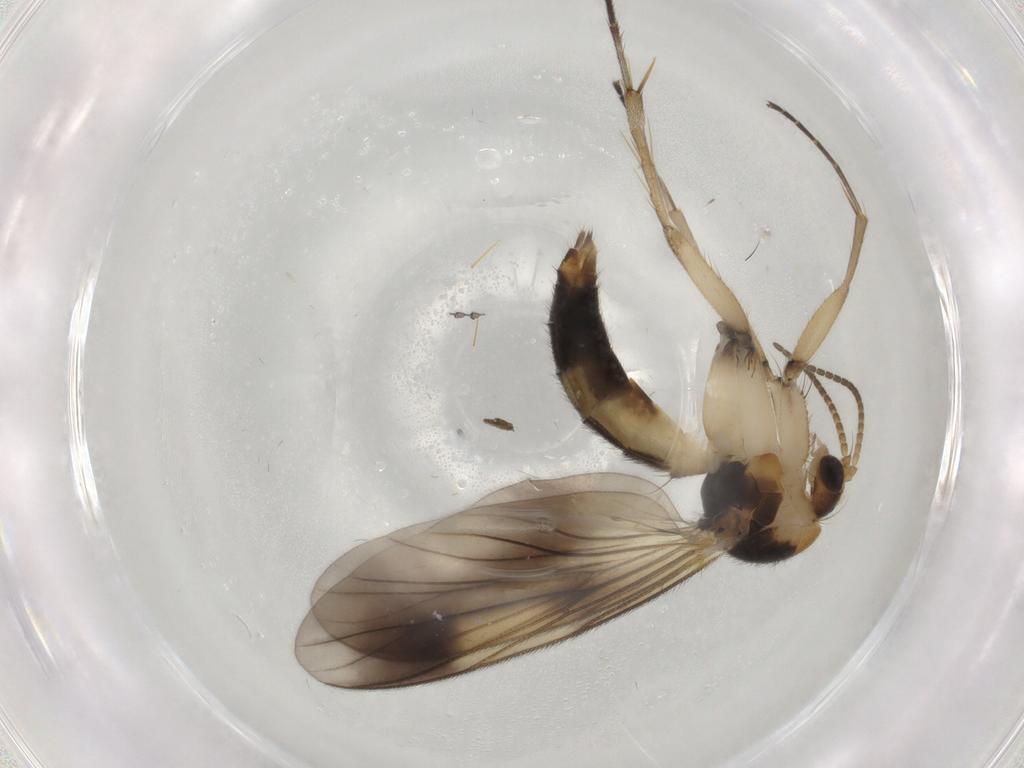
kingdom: Animalia
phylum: Arthropoda
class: Insecta
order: Diptera
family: Mycetophilidae
